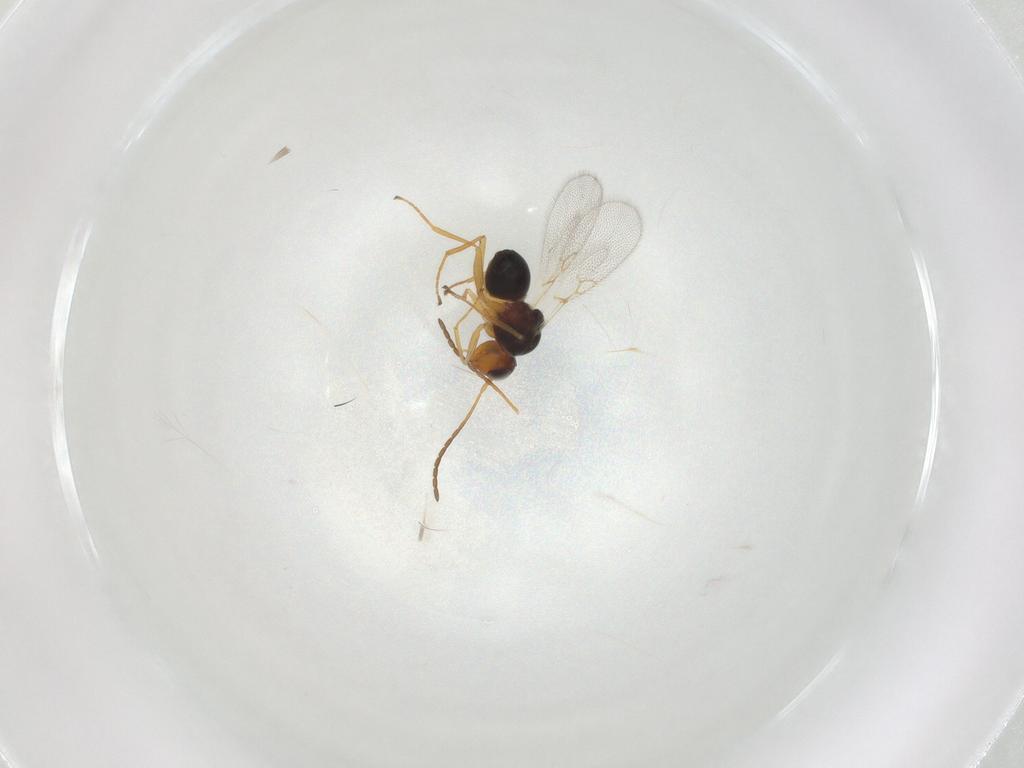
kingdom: Animalia
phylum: Arthropoda
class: Insecta
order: Hymenoptera
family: Figitidae
